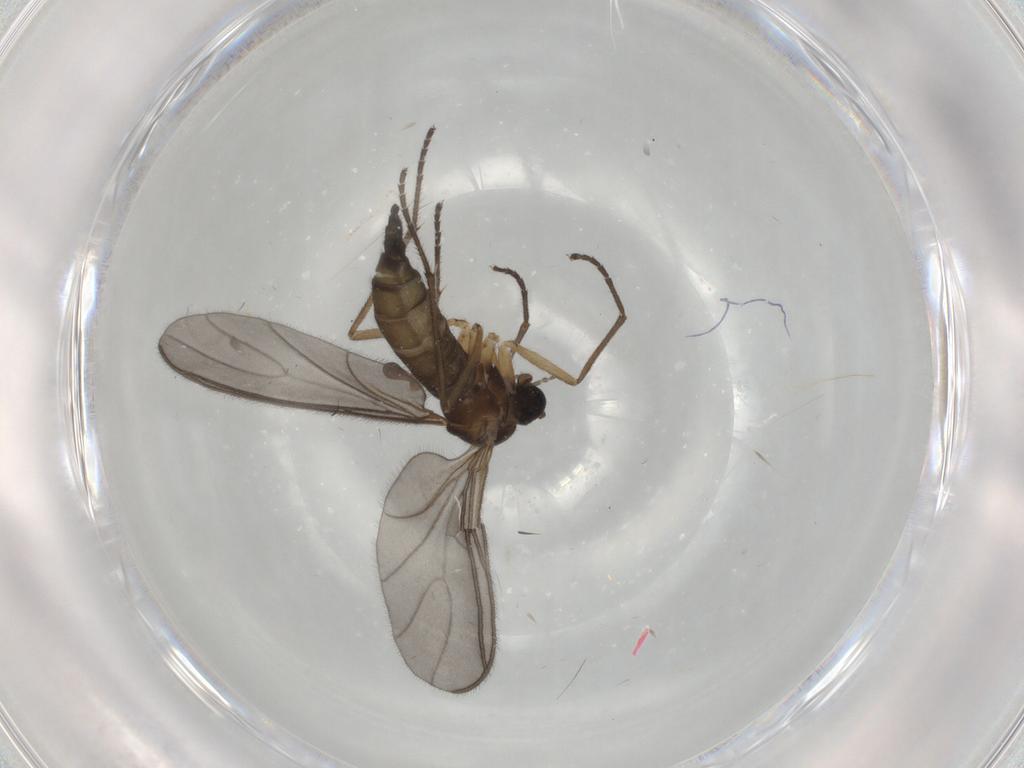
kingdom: Animalia
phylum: Arthropoda
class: Insecta
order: Diptera
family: Sciaridae
